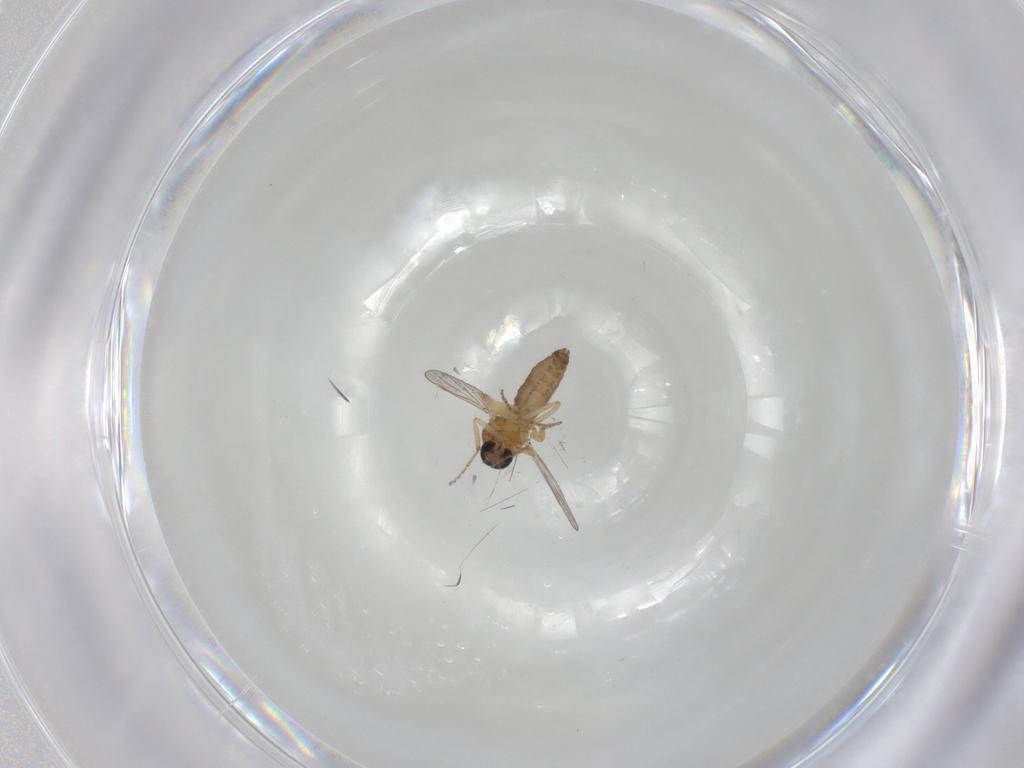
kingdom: Animalia
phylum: Arthropoda
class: Insecta
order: Diptera
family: Ceratopogonidae
